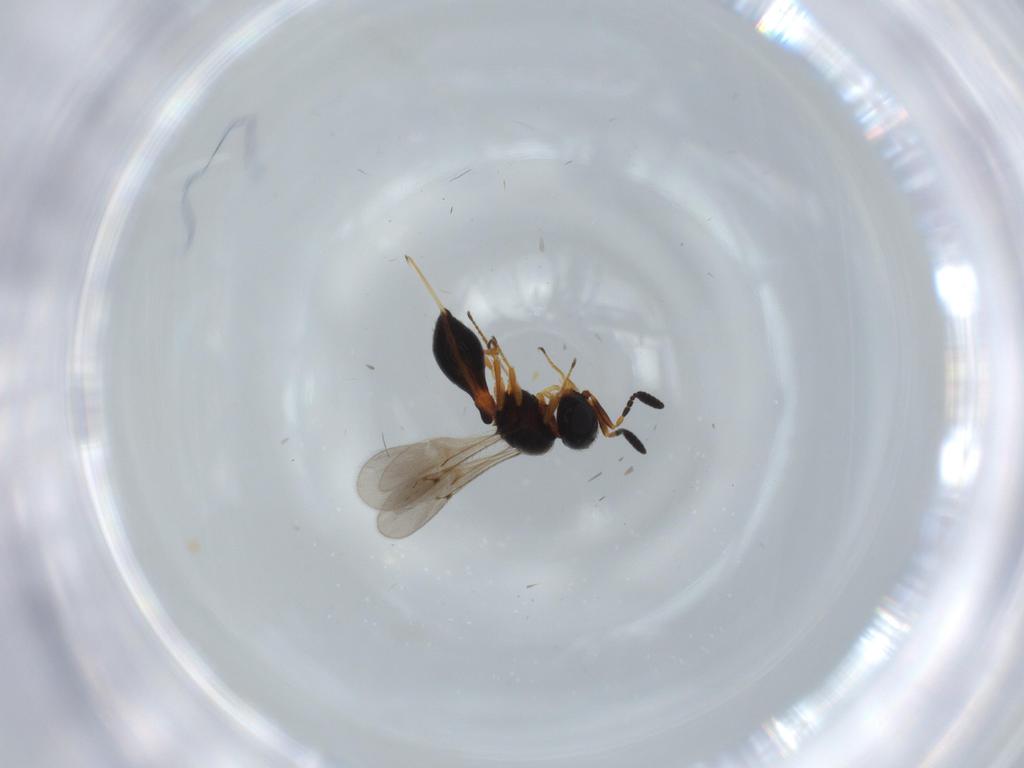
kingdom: Animalia
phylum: Arthropoda
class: Insecta
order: Hymenoptera
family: Scelionidae
